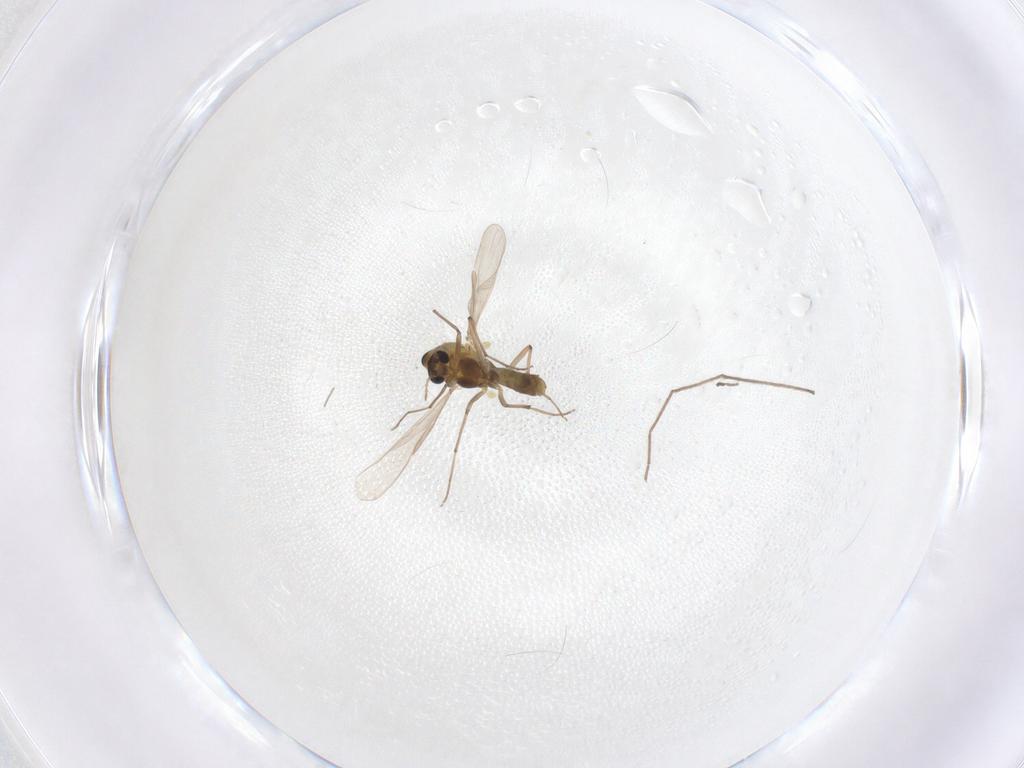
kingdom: Animalia
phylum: Arthropoda
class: Insecta
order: Diptera
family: Chironomidae
